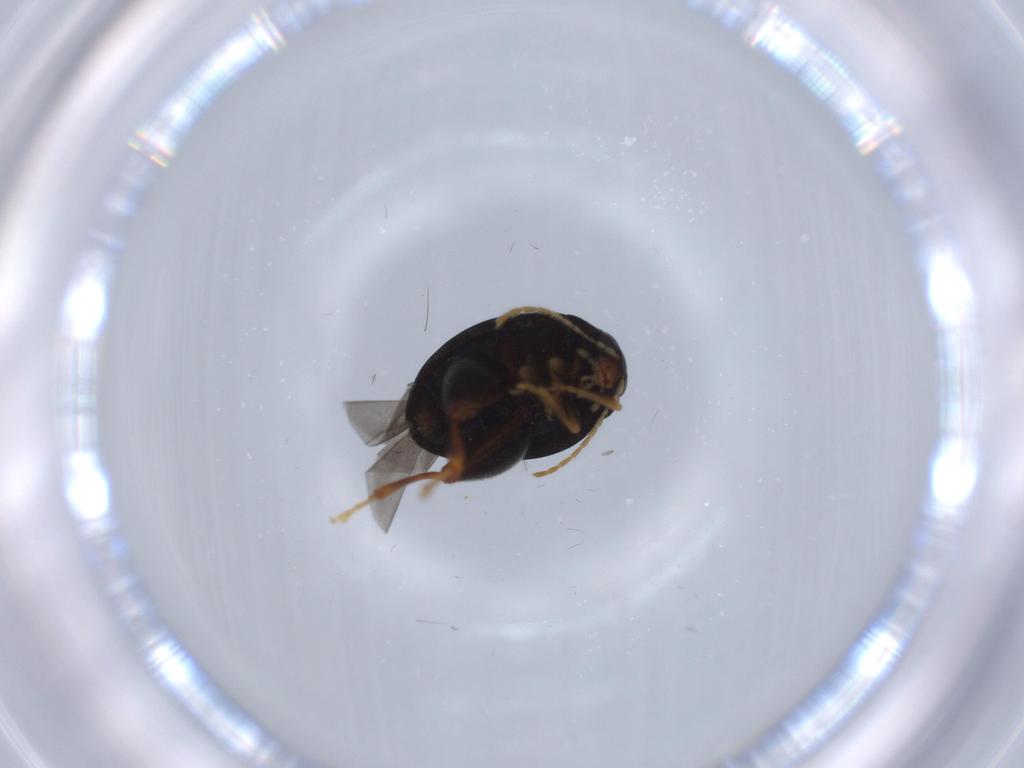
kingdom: Animalia
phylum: Arthropoda
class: Insecta
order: Coleoptera
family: Chrysomelidae
